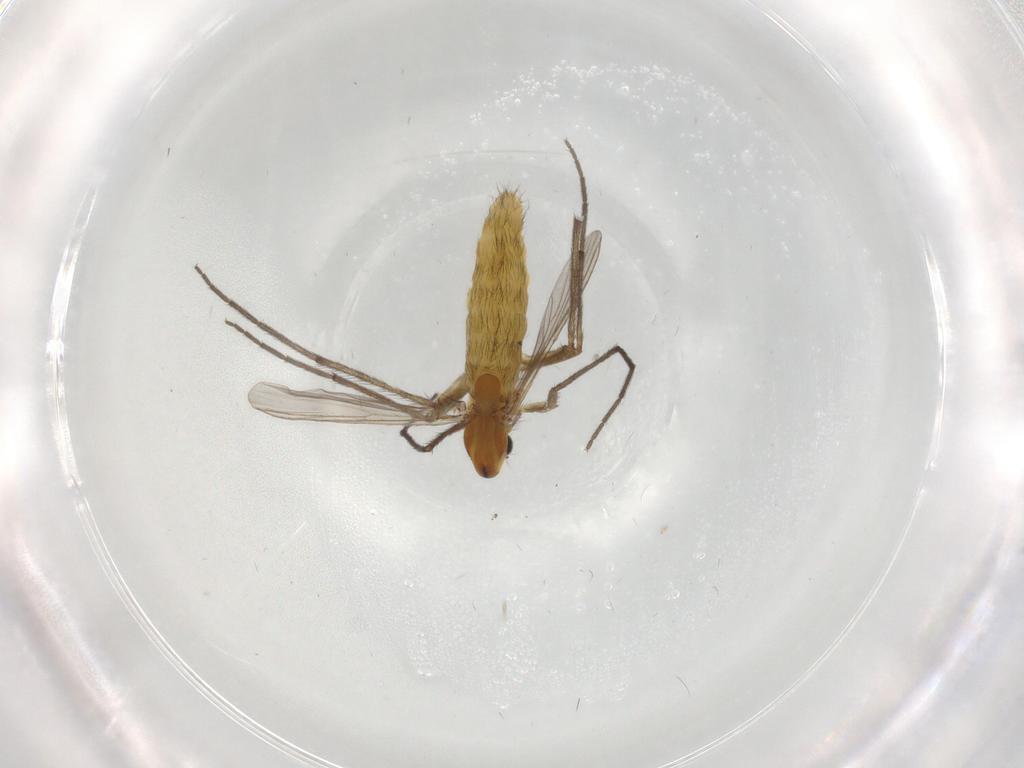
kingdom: Animalia
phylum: Arthropoda
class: Insecta
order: Diptera
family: Chironomidae
